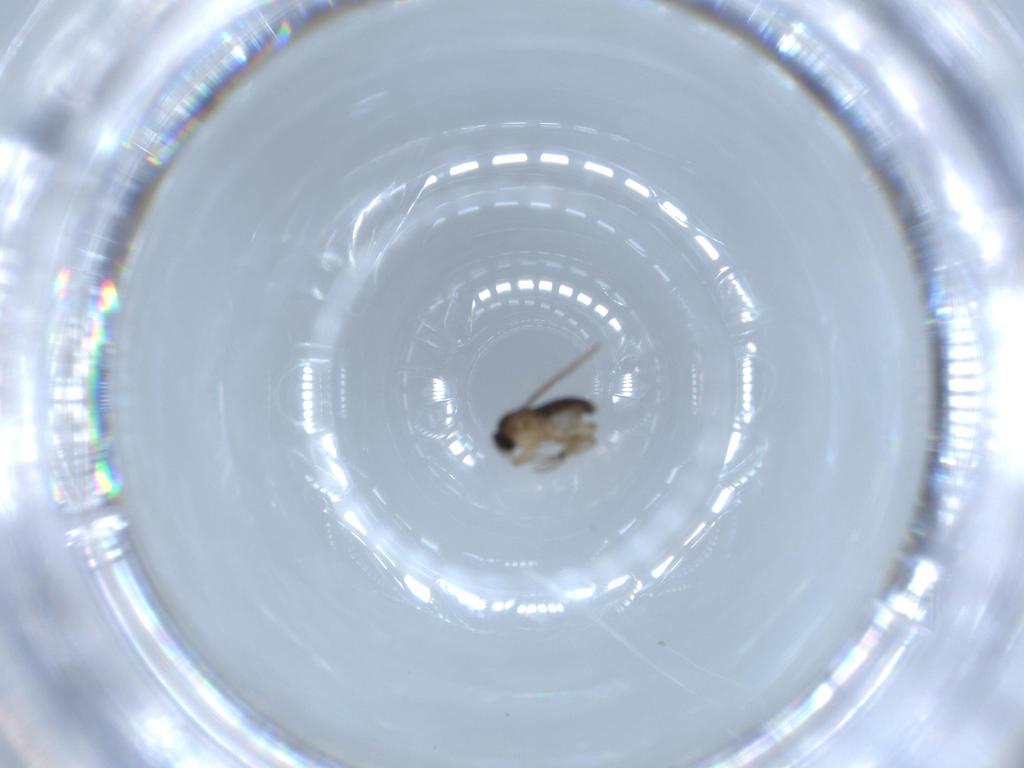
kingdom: Animalia
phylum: Arthropoda
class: Insecta
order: Diptera
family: Phoridae
